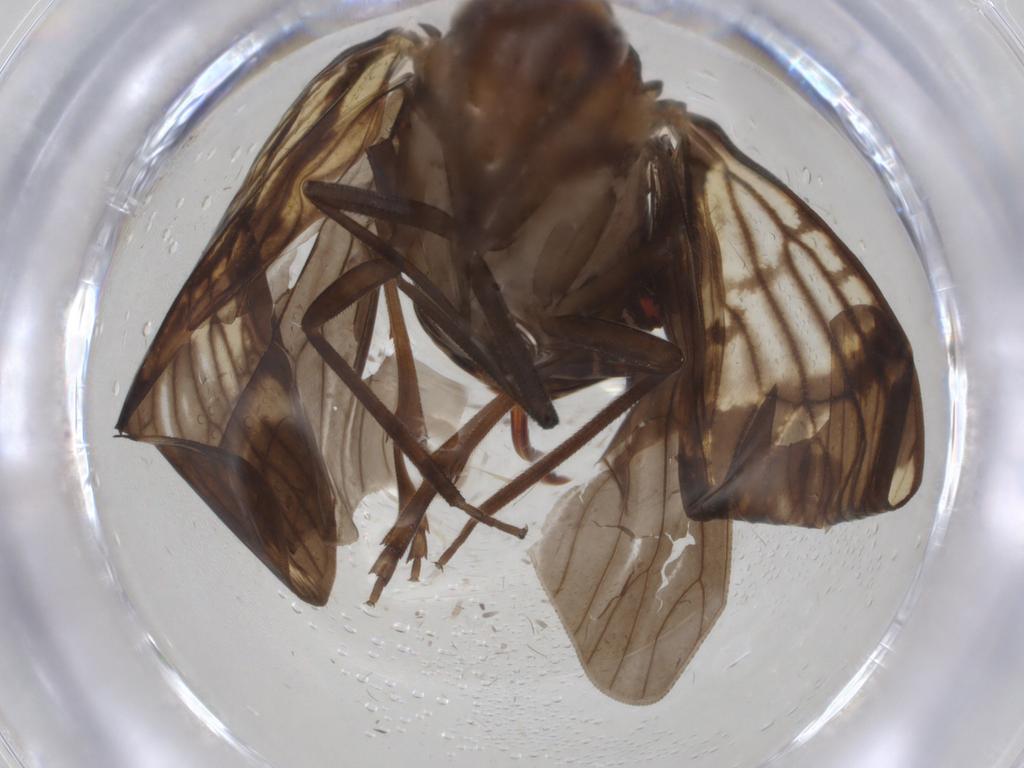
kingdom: Animalia
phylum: Arthropoda
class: Insecta
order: Hemiptera
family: Cixiidae
